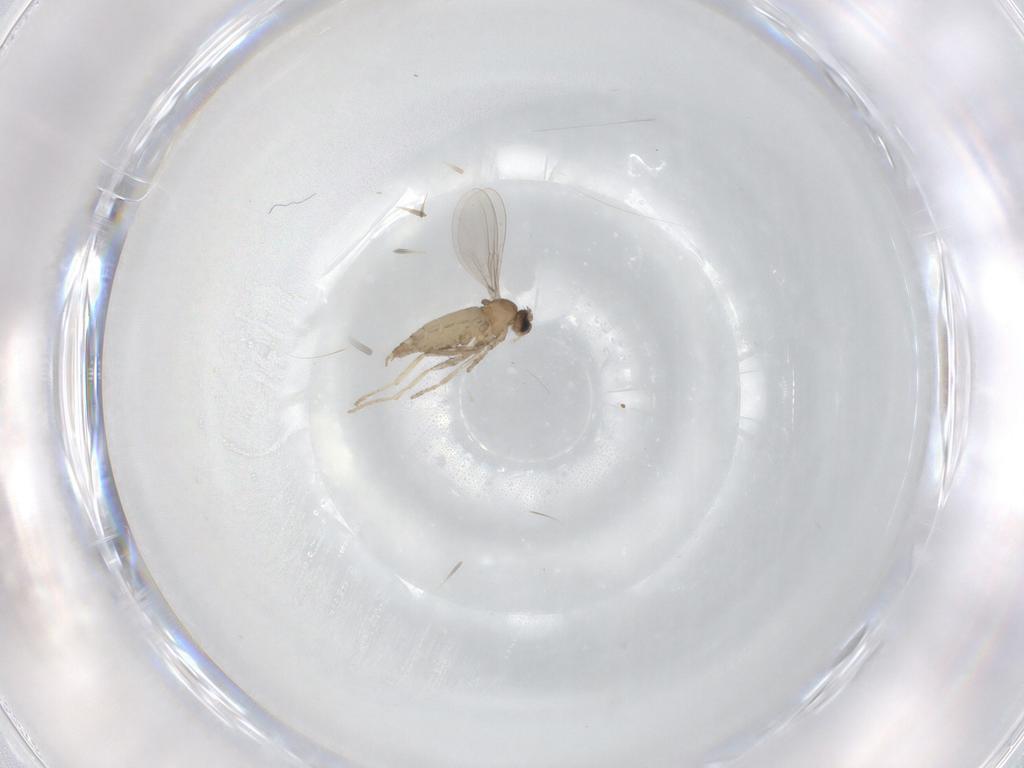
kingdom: Animalia
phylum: Arthropoda
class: Insecta
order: Diptera
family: Cecidomyiidae
